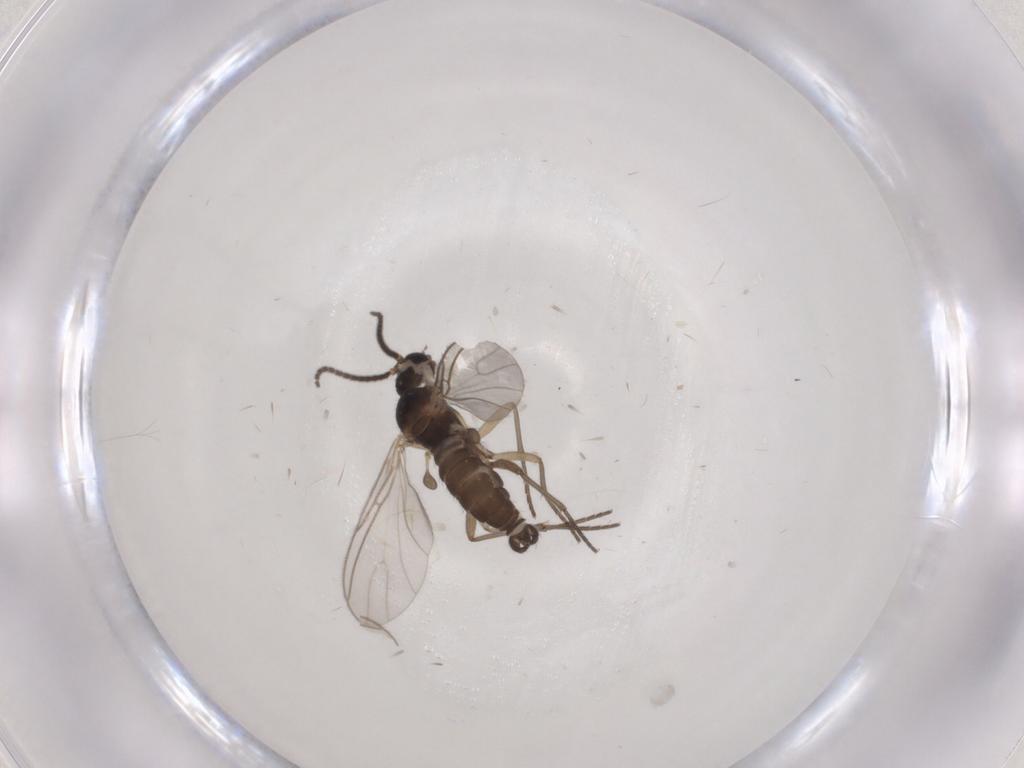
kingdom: Animalia
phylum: Arthropoda
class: Insecta
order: Diptera
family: Sciaridae
